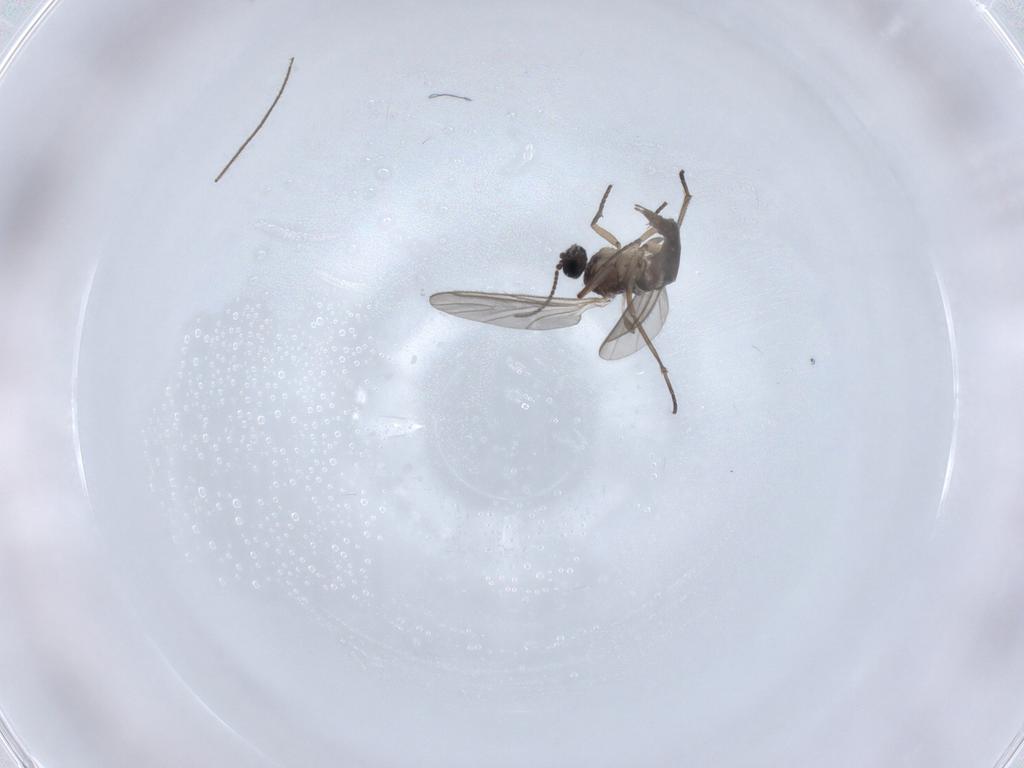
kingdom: Animalia
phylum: Arthropoda
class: Insecta
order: Diptera
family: Sciaridae
